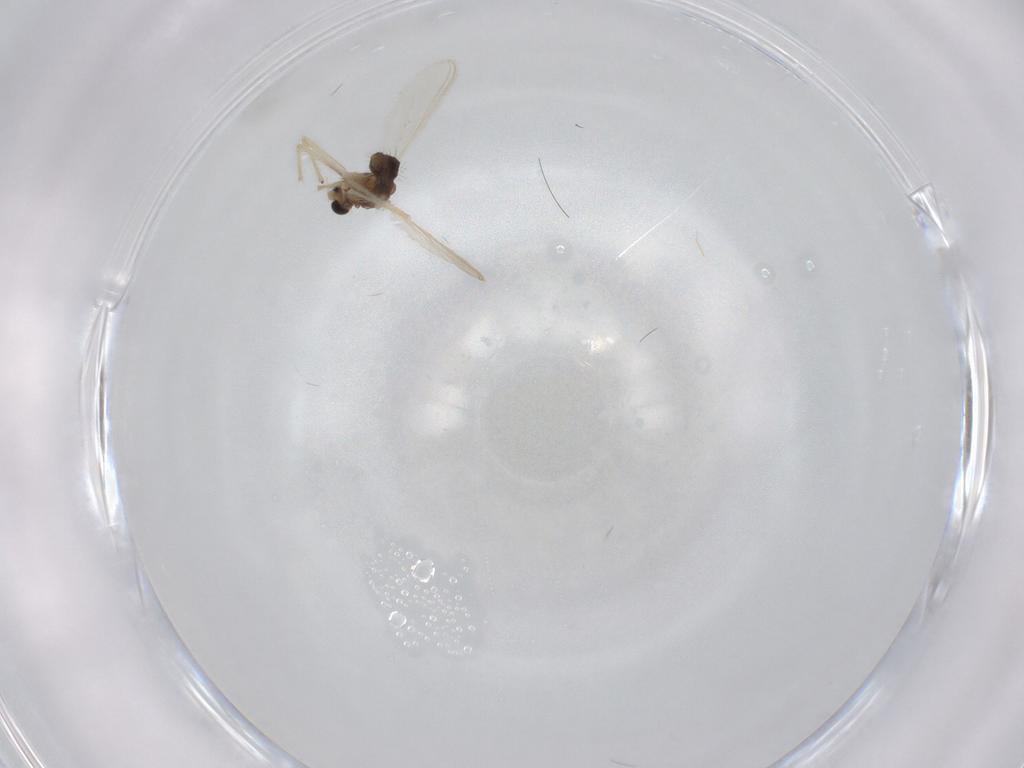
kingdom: Animalia
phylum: Arthropoda
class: Insecta
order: Diptera
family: Chironomidae
